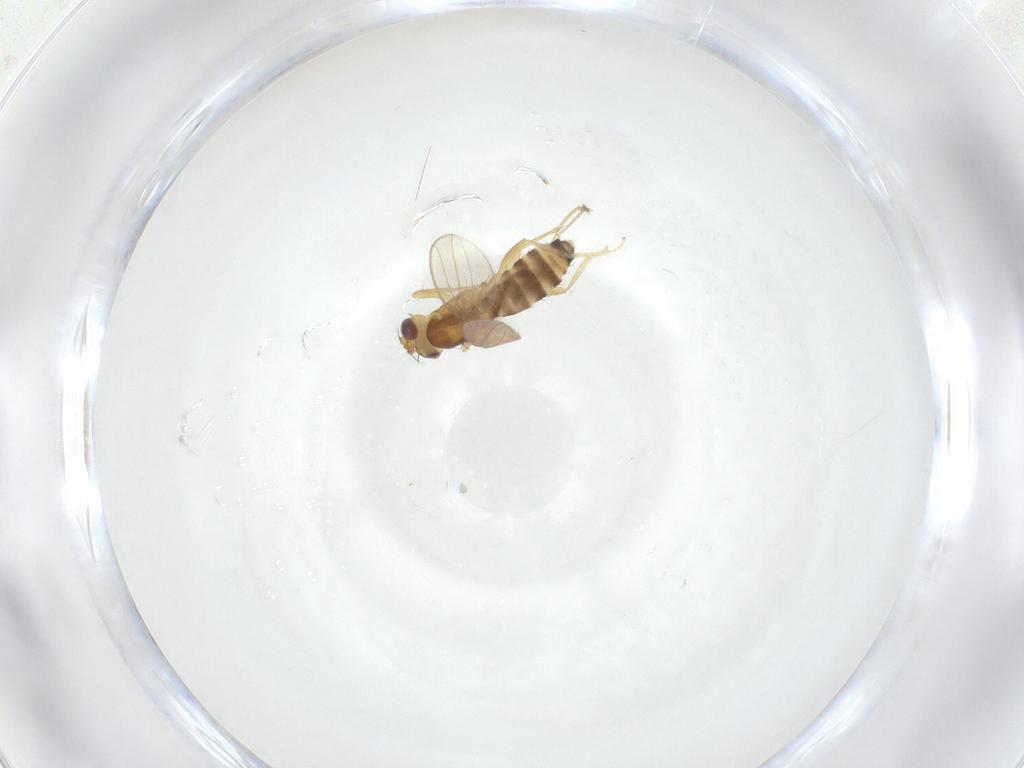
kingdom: Animalia
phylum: Arthropoda
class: Insecta
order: Diptera
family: Periscelididae
